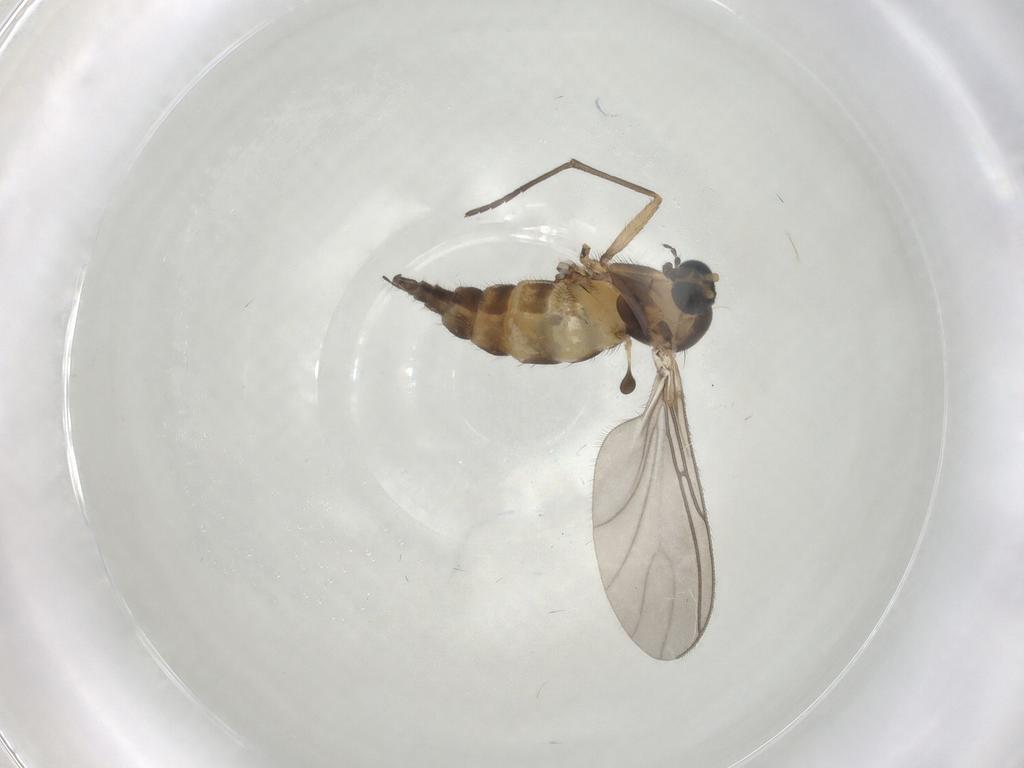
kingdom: Animalia
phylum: Arthropoda
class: Insecta
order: Diptera
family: Sciaridae
